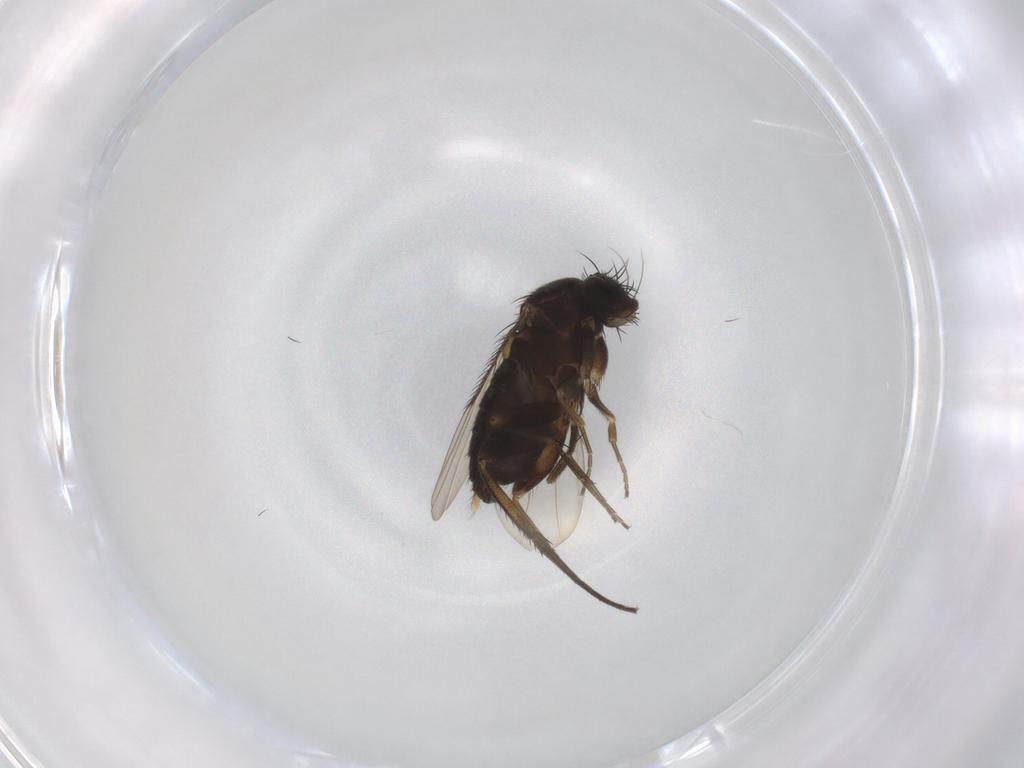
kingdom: Animalia
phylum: Arthropoda
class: Insecta
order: Diptera
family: Phoridae
